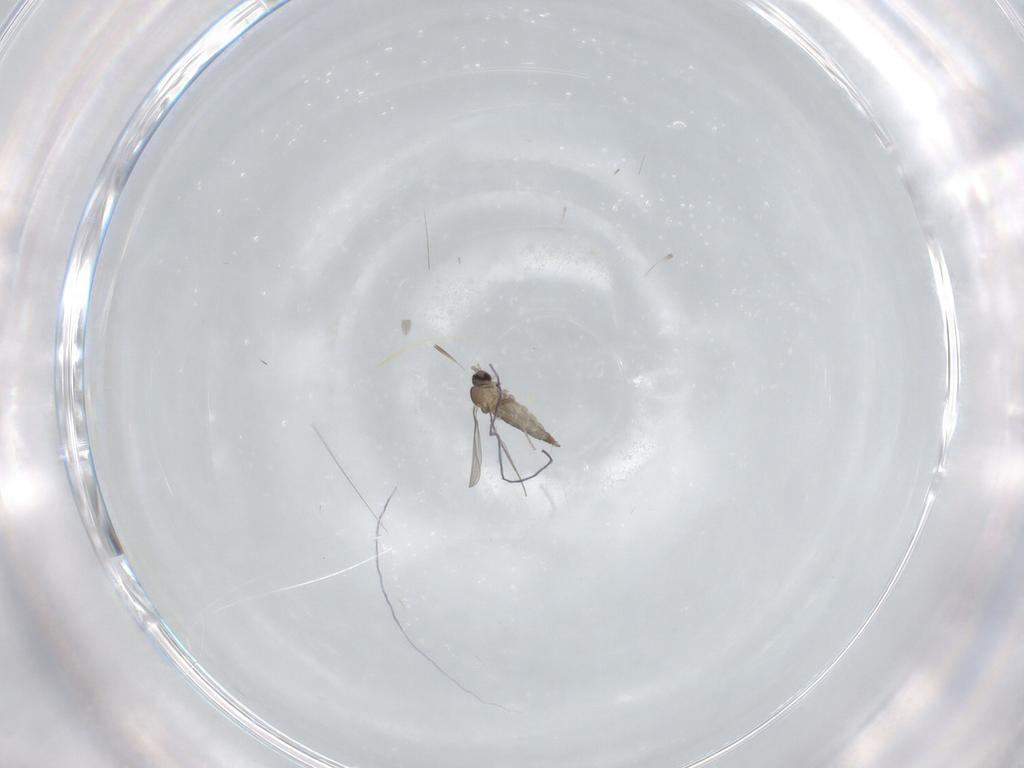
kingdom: Animalia
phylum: Arthropoda
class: Insecta
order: Diptera
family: Cecidomyiidae
